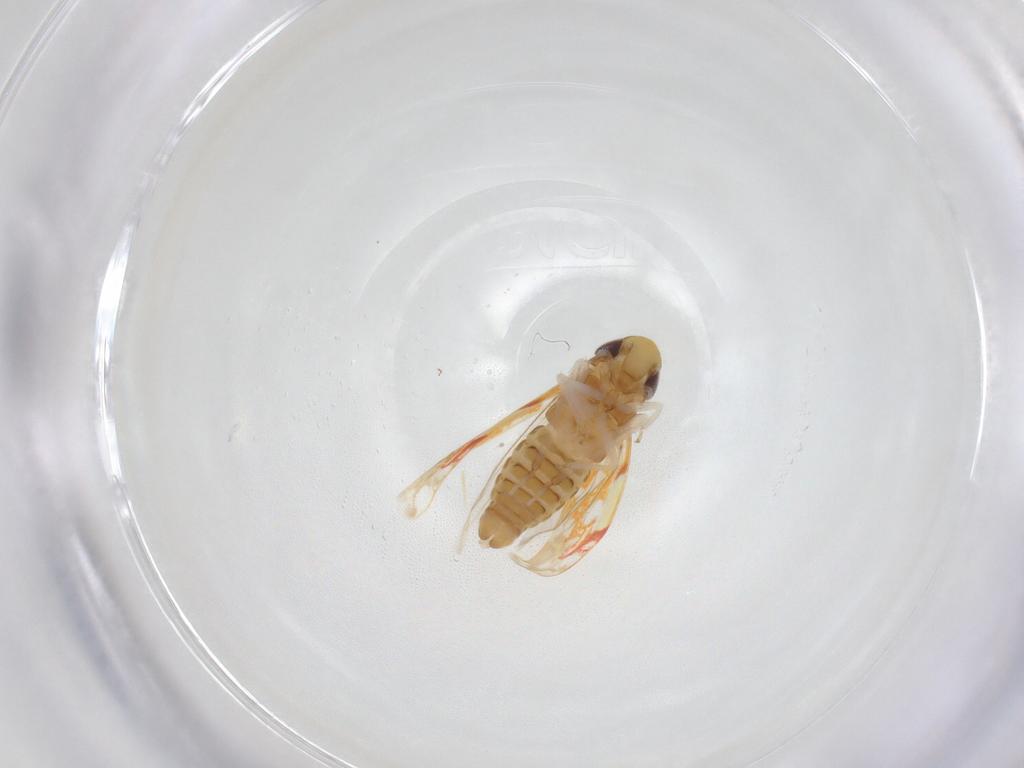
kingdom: Animalia
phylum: Arthropoda
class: Insecta
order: Hemiptera
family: Cicadellidae
